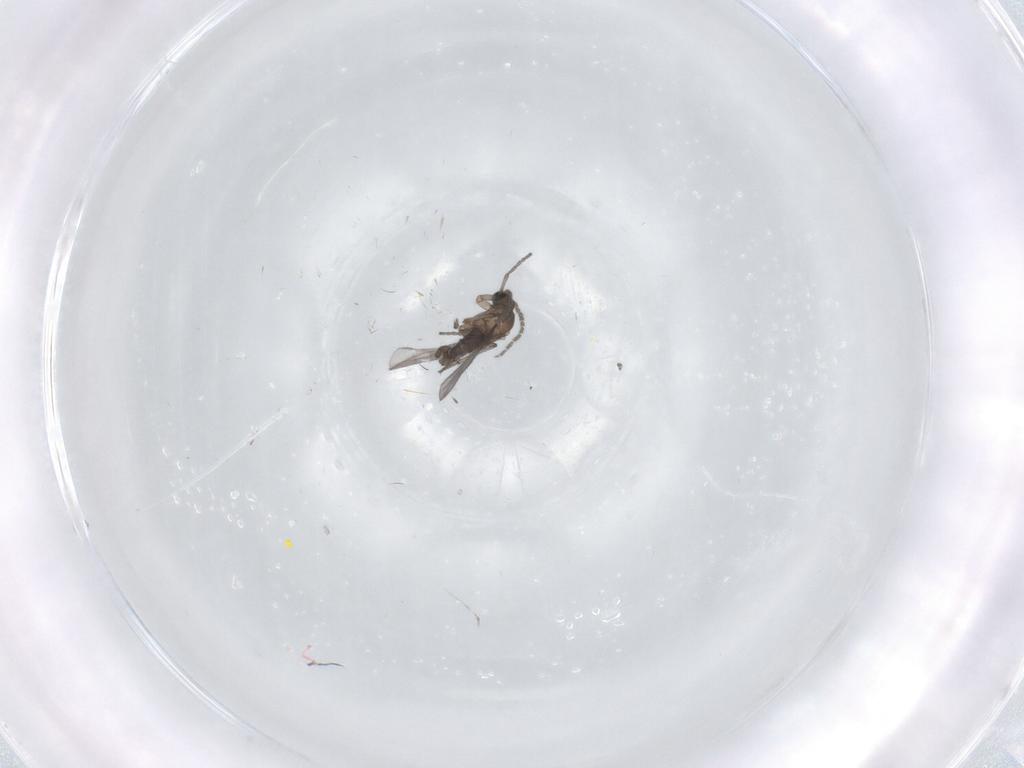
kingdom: Animalia
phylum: Arthropoda
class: Insecta
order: Diptera
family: Sciaridae
